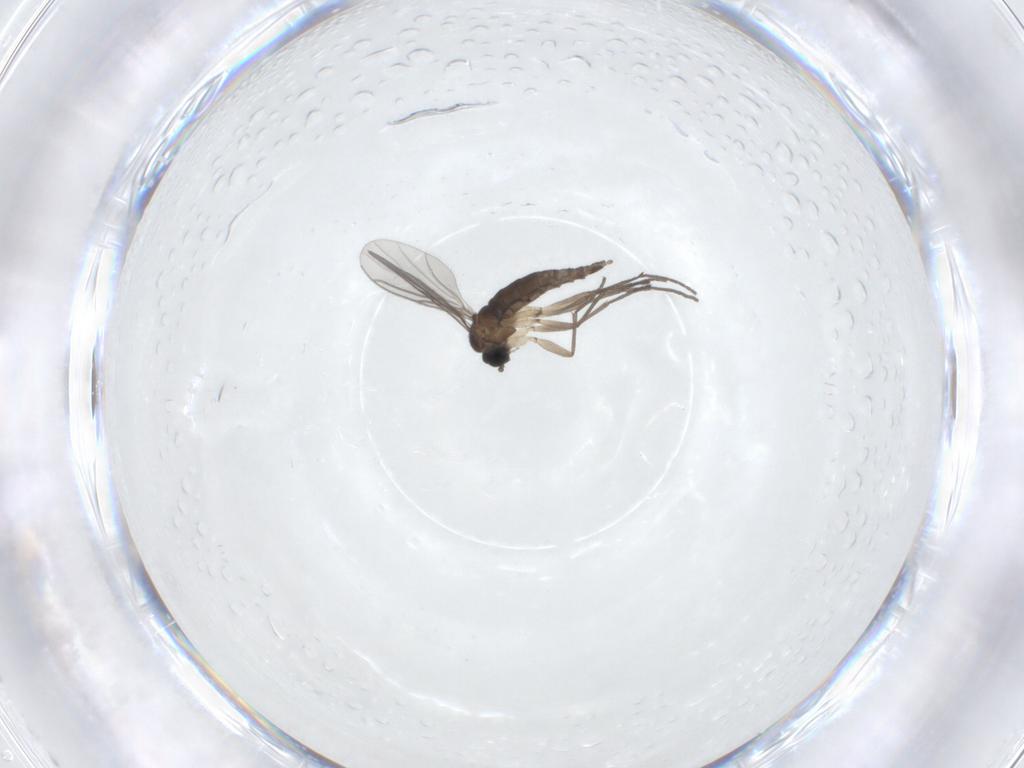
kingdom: Animalia
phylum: Arthropoda
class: Insecta
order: Diptera
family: Sciaridae
